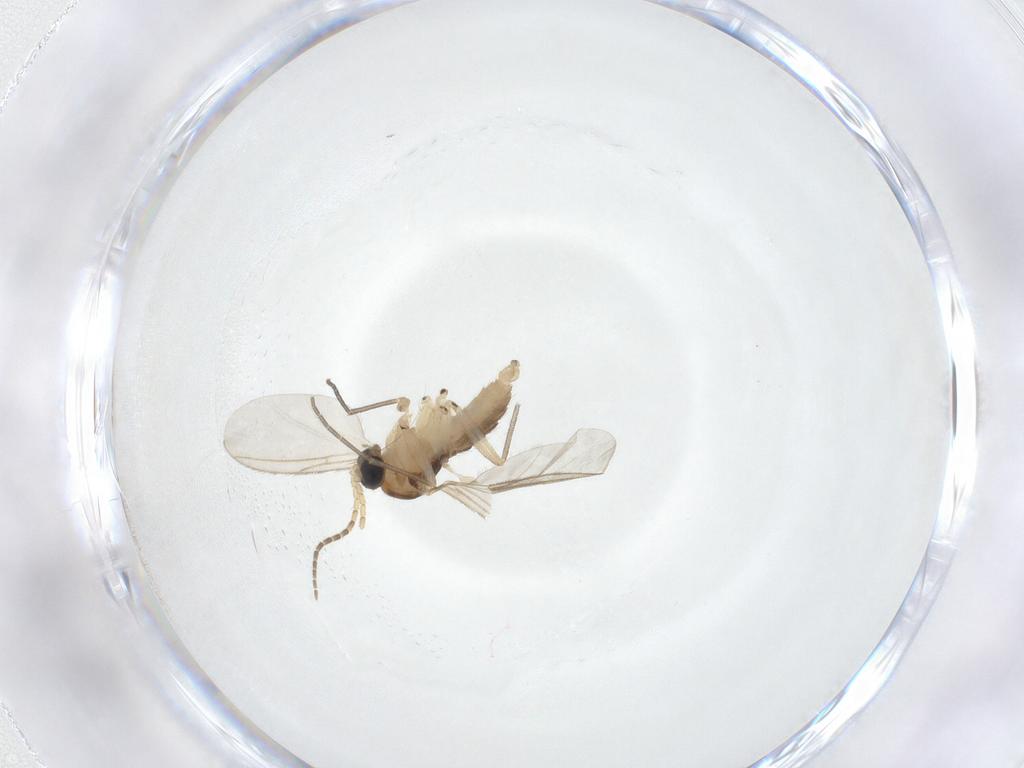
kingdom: Animalia
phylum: Arthropoda
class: Insecta
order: Diptera
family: Sciaridae
